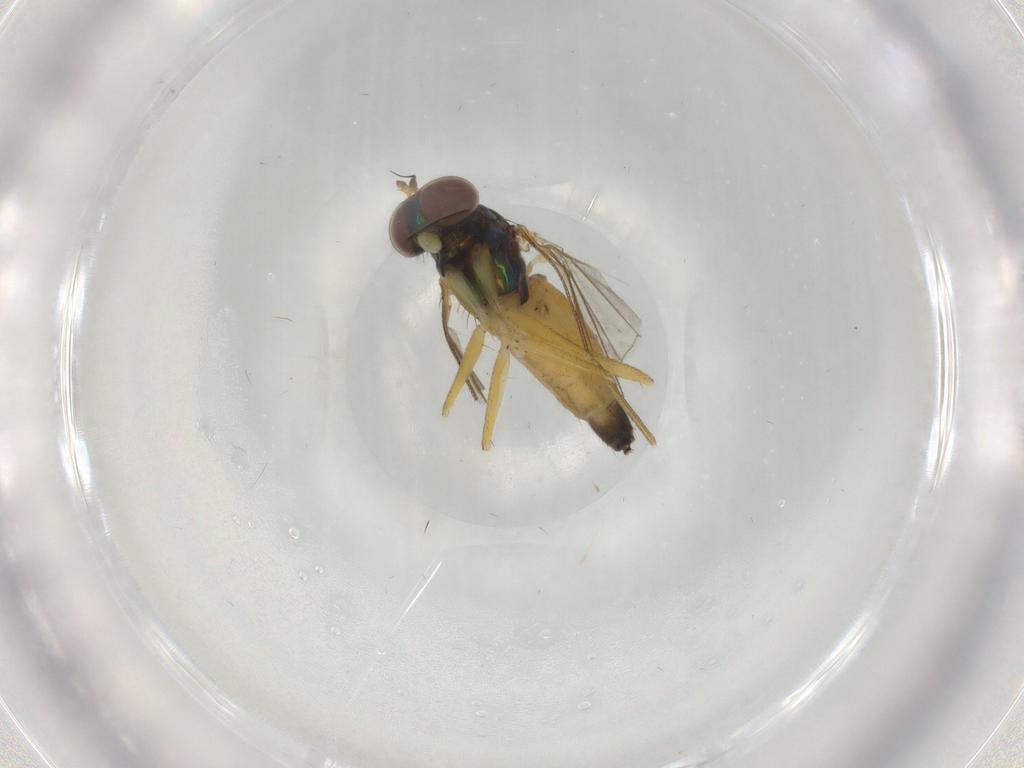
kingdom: Animalia
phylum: Arthropoda
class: Insecta
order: Diptera
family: Dolichopodidae
